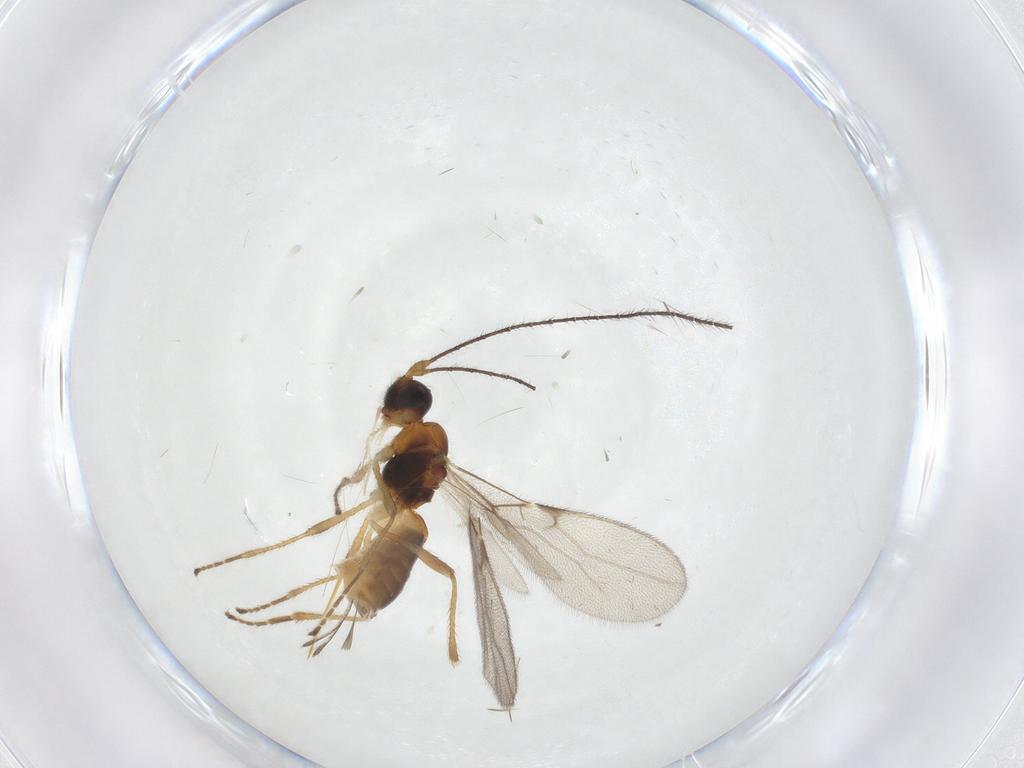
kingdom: Animalia
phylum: Arthropoda
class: Insecta
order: Hymenoptera
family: Braconidae
